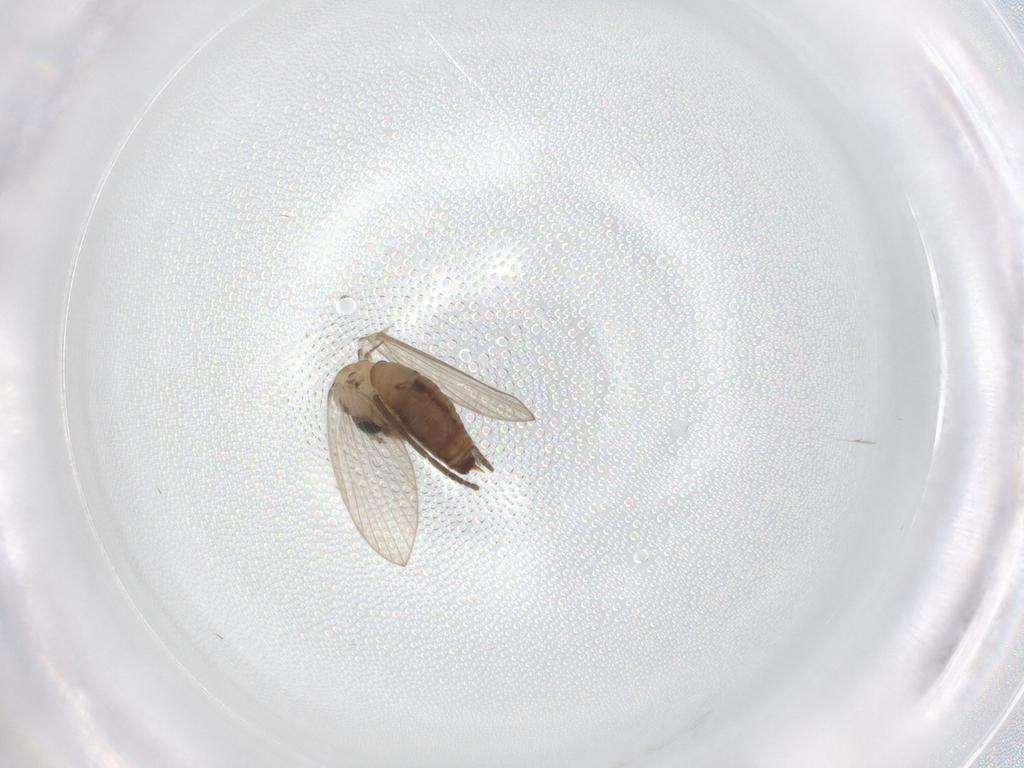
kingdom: Animalia
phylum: Arthropoda
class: Insecta
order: Diptera
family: Psychodidae
